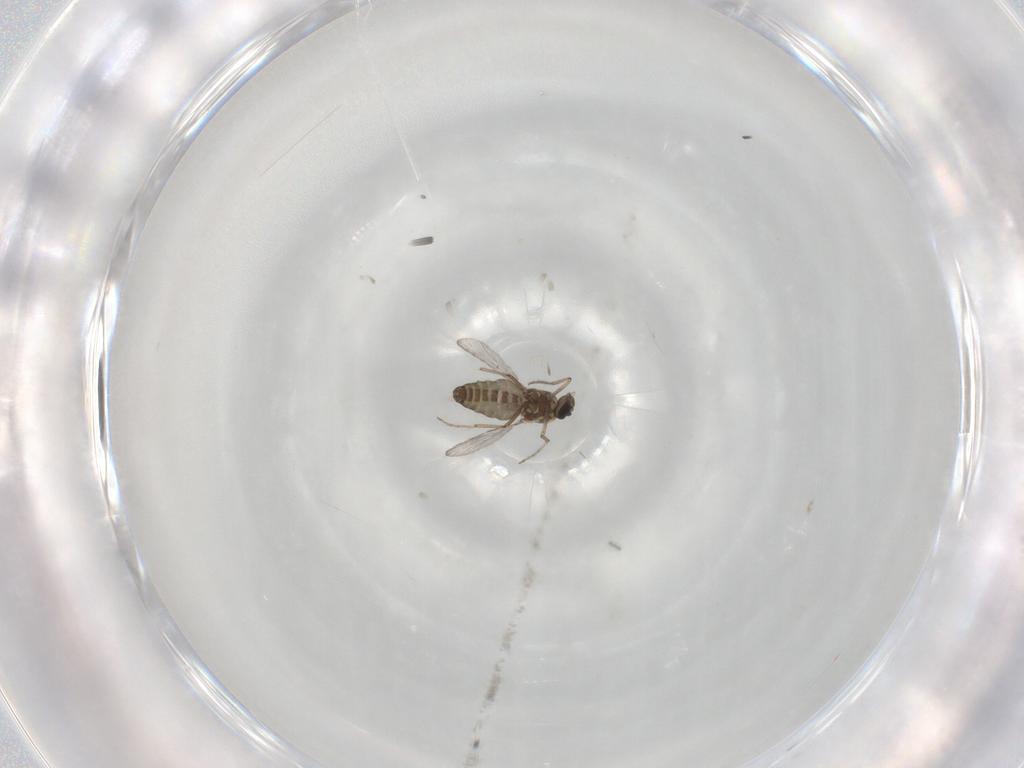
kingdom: Animalia
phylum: Arthropoda
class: Insecta
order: Diptera
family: Ceratopogonidae
